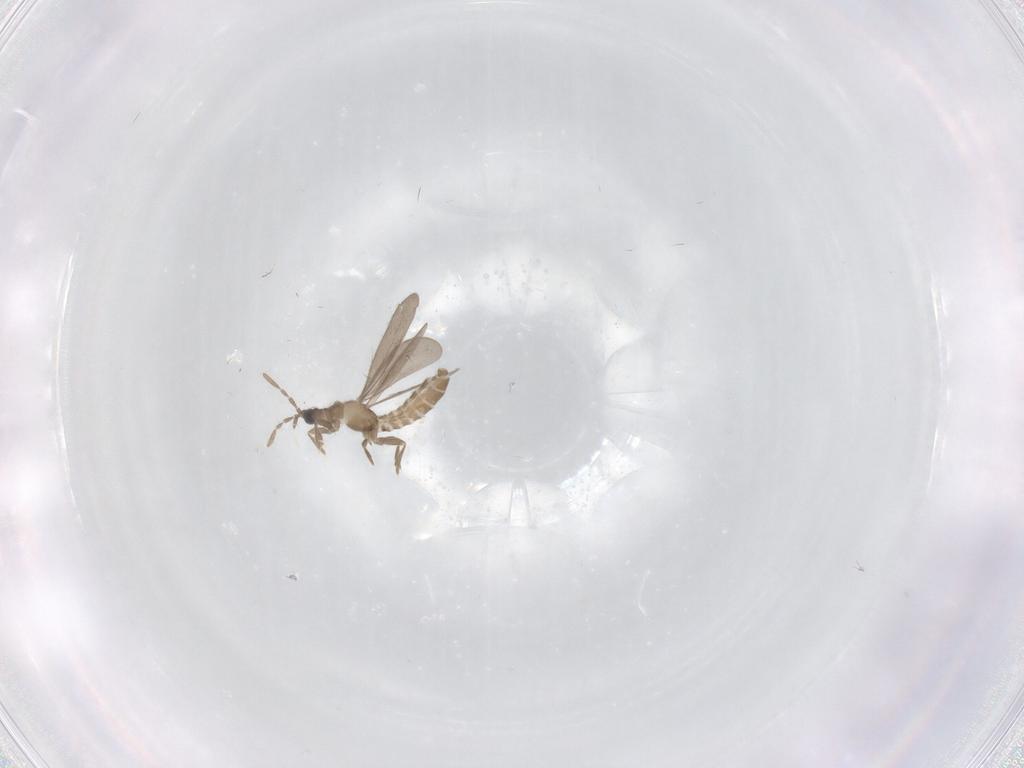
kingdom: Animalia
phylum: Arthropoda
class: Insecta
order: Hemiptera
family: Enicocephalidae
